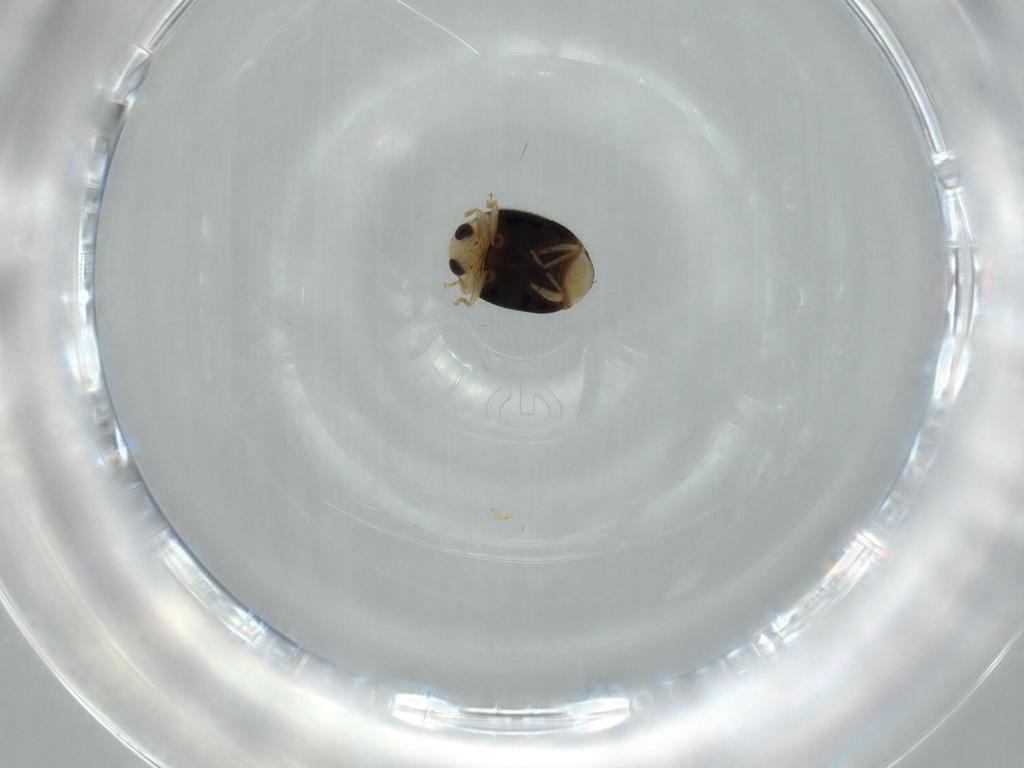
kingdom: Animalia
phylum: Arthropoda
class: Insecta
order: Coleoptera
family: Coccinellidae
